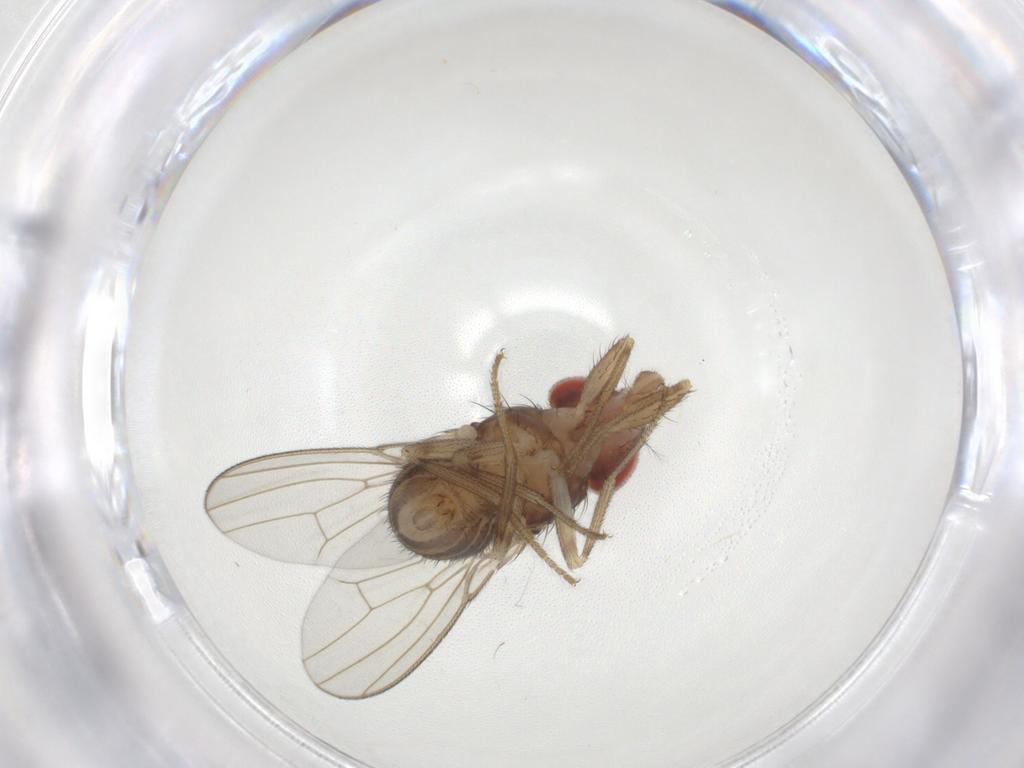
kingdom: Animalia
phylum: Arthropoda
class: Insecta
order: Diptera
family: Drosophilidae
